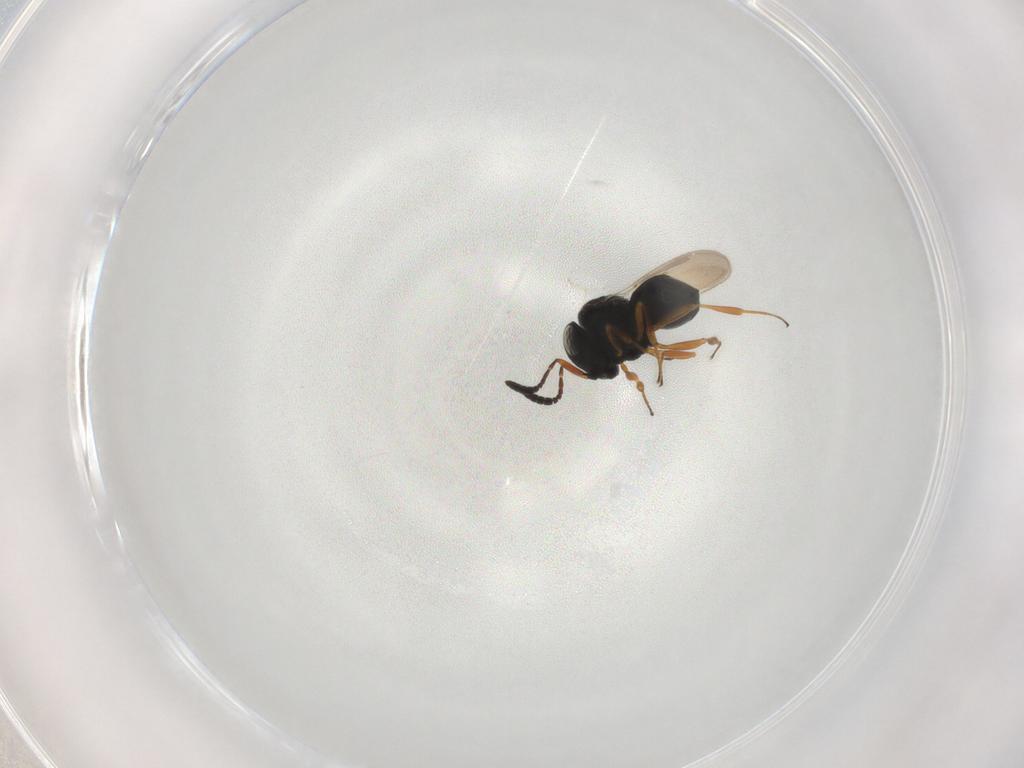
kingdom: Animalia
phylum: Arthropoda
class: Insecta
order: Hymenoptera
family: Scelionidae
